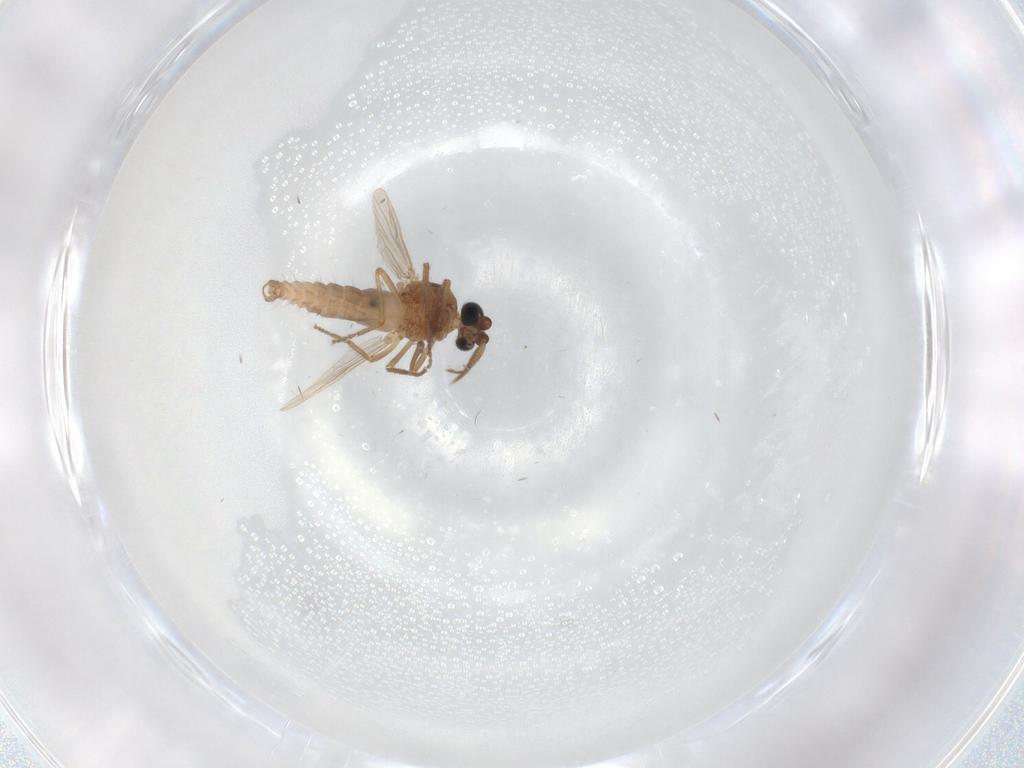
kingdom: Animalia
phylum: Arthropoda
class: Insecta
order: Diptera
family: Ceratopogonidae
